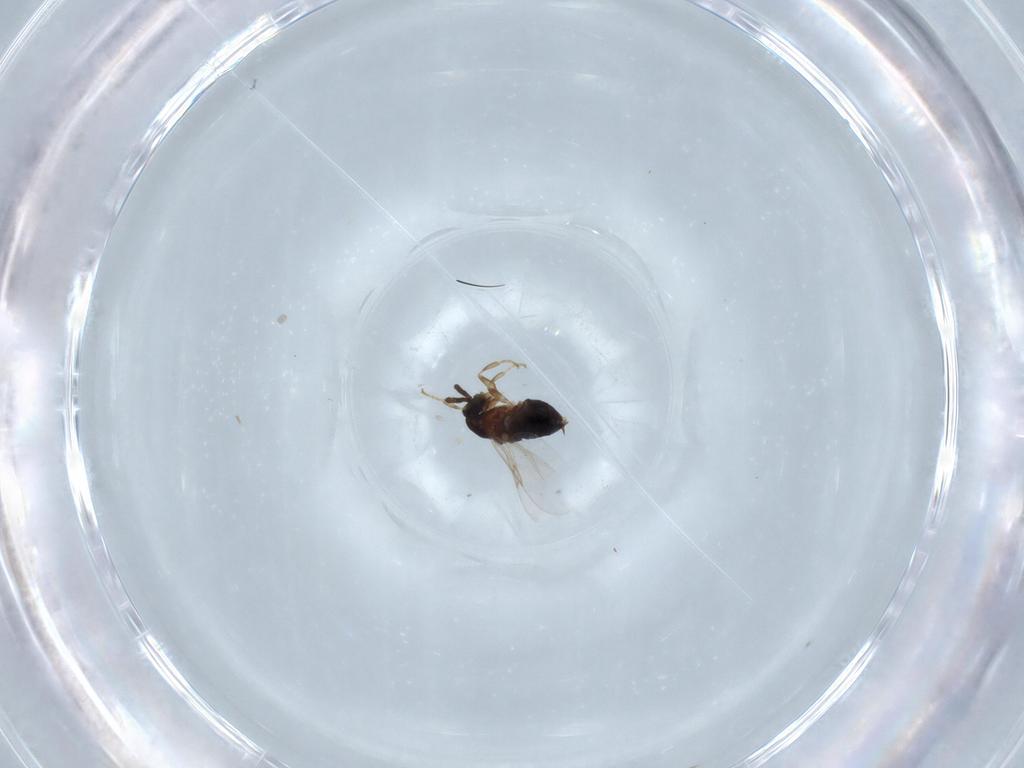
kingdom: Animalia
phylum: Arthropoda
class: Insecta
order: Diptera
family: Scatopsidae
